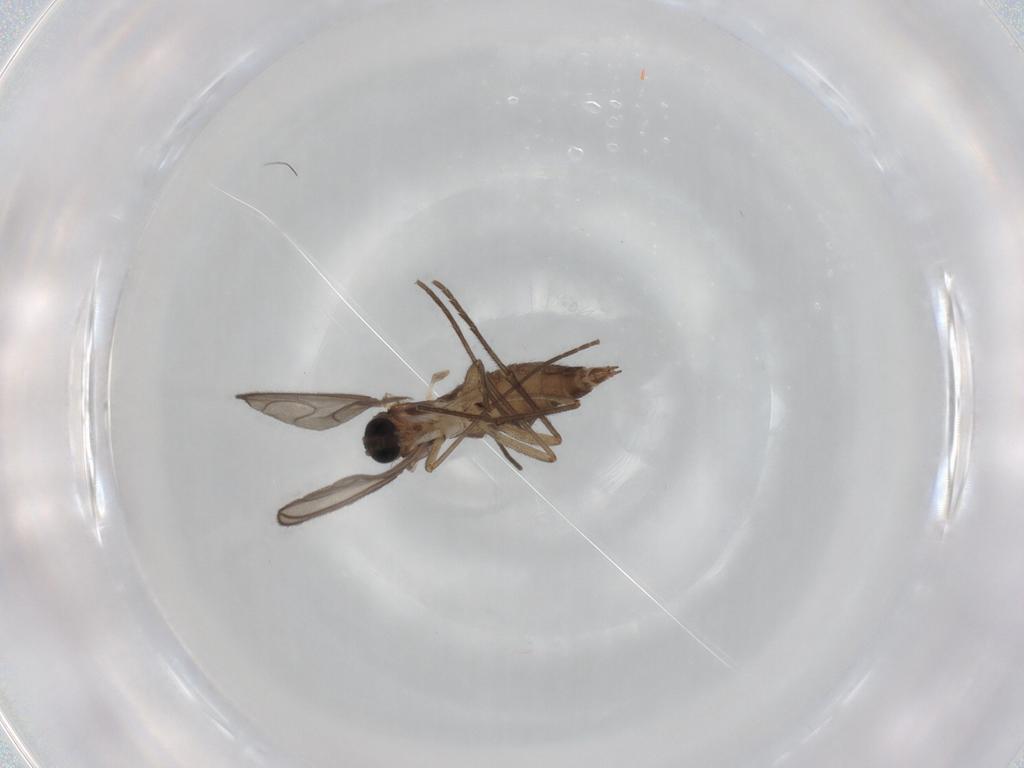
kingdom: Animalia
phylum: Arthropoda
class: Insecta
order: Diptera
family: Sciaridae
